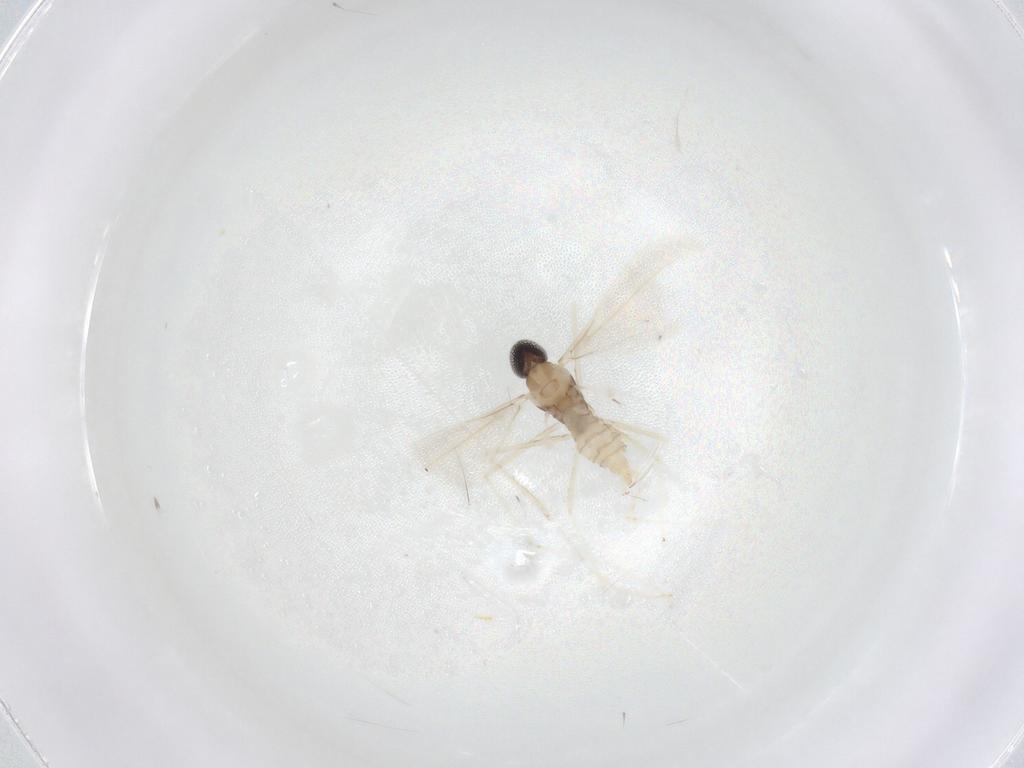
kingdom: Animalia
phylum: Arthropoda
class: Insecta
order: Diptera
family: Cecidomyiidae
